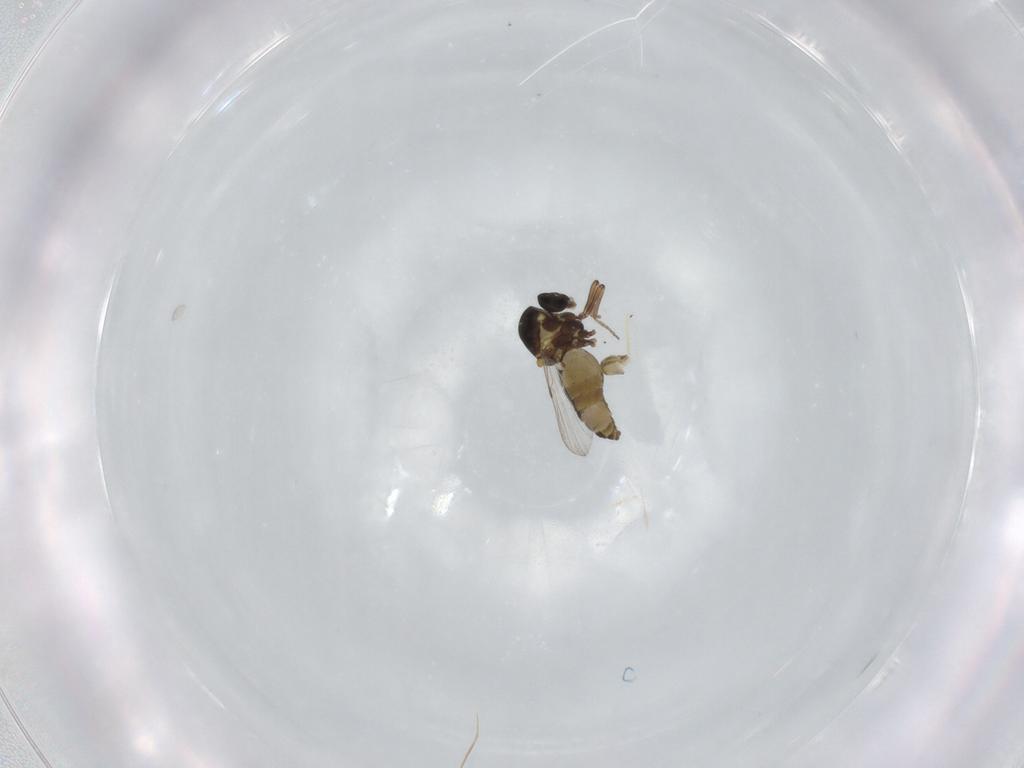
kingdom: Animalia
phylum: Arthropoda
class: Insecta
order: Diptera
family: Ceratopogonidae
